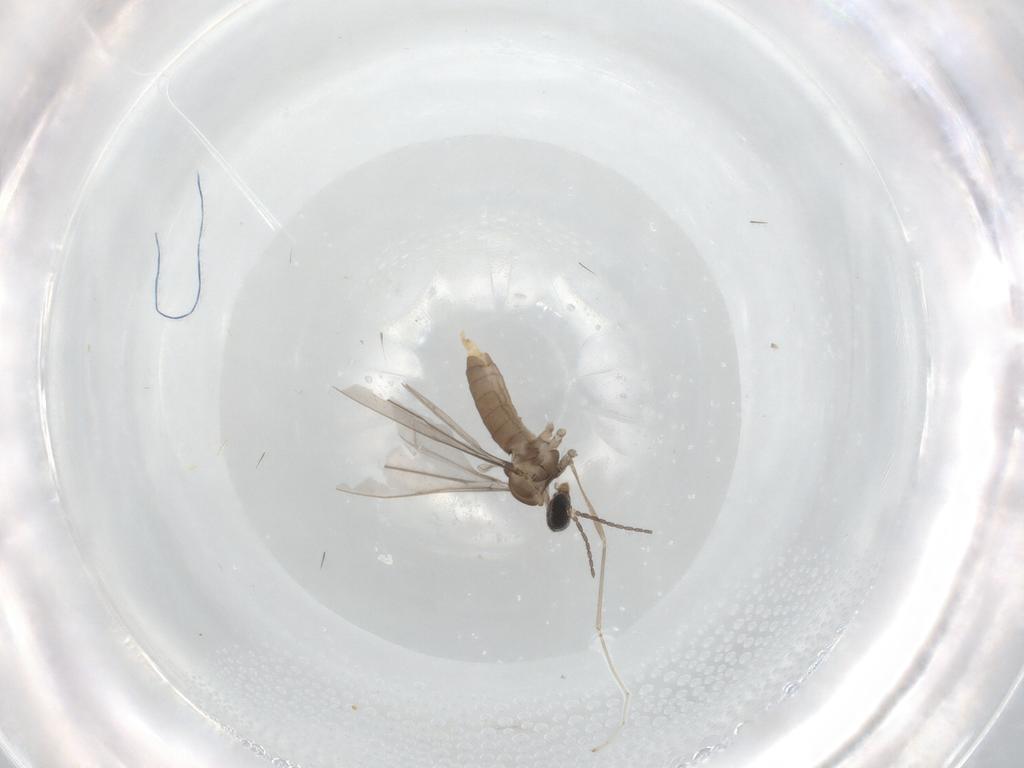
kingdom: Animalia
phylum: Arthropoda
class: Insecta
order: Diptera
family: Cecidomyiidae
